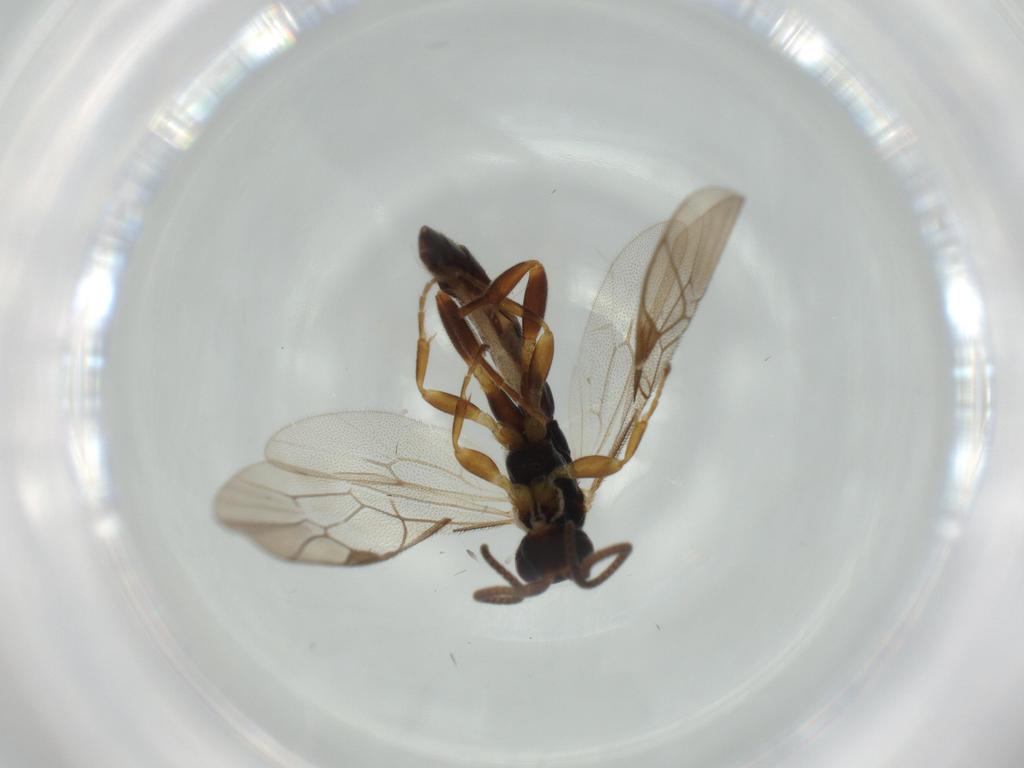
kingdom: Animalia
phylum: Arthropoda
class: Insecta
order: Hymenoptera
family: Ichneumonidae
